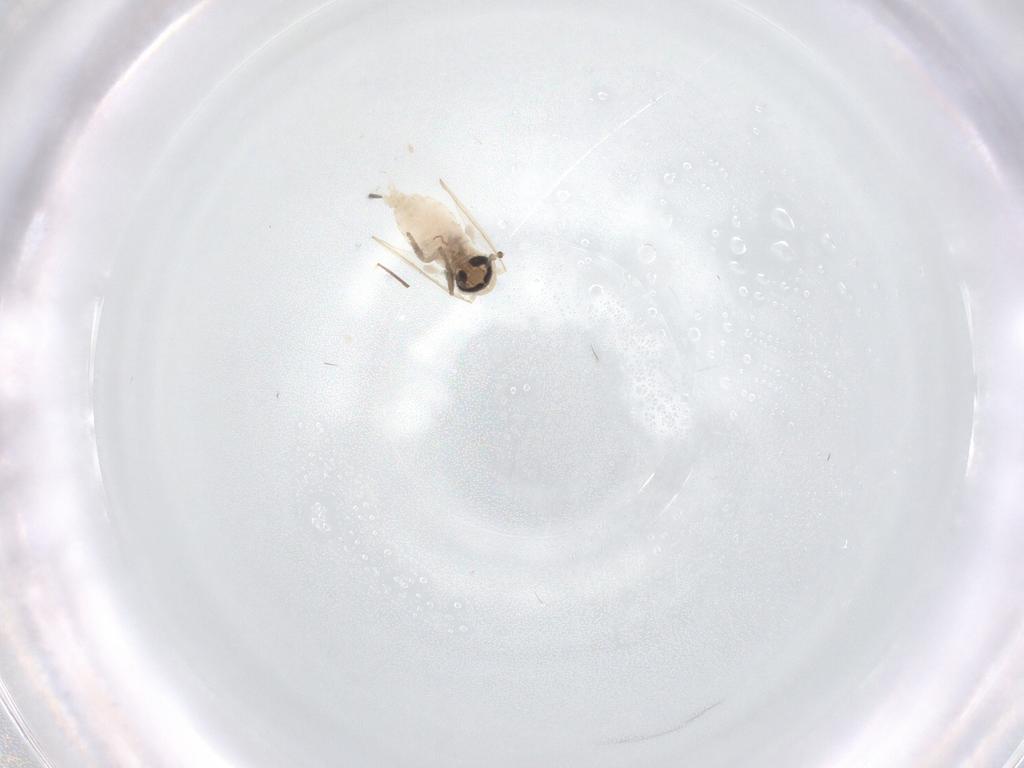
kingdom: Animalia
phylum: Arthropoda
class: Insecta
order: Diptera
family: Psychodidae
